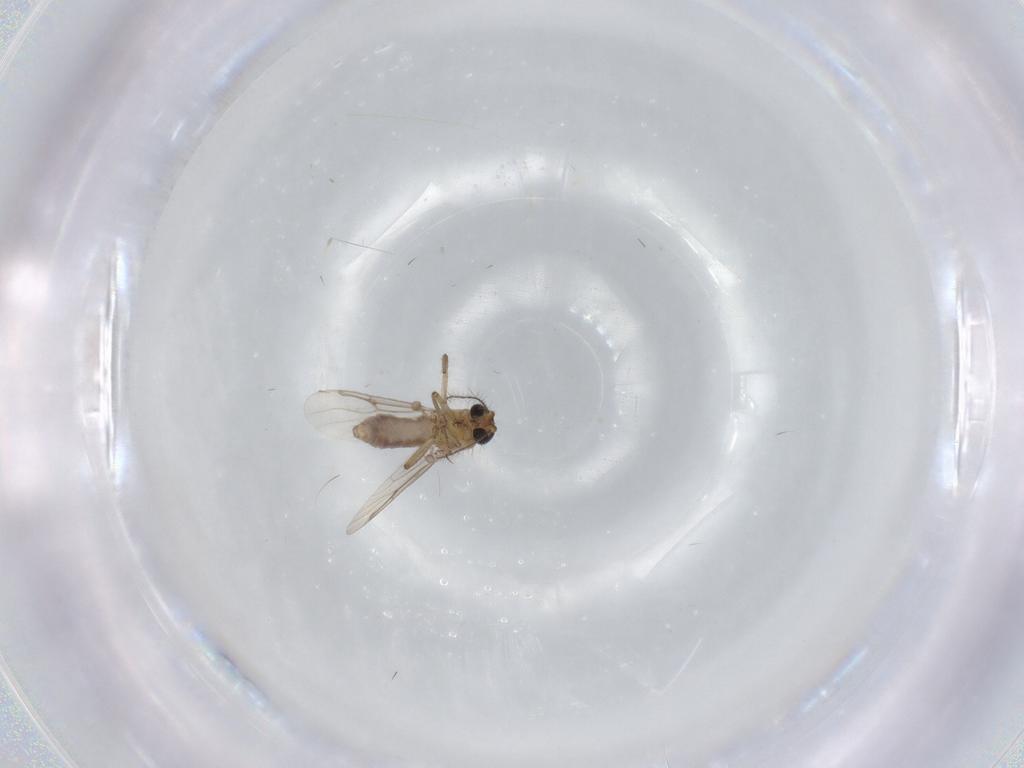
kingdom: Animalia
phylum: Arthropoda
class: Insecta
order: Diptera
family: Ceratopogonidae
